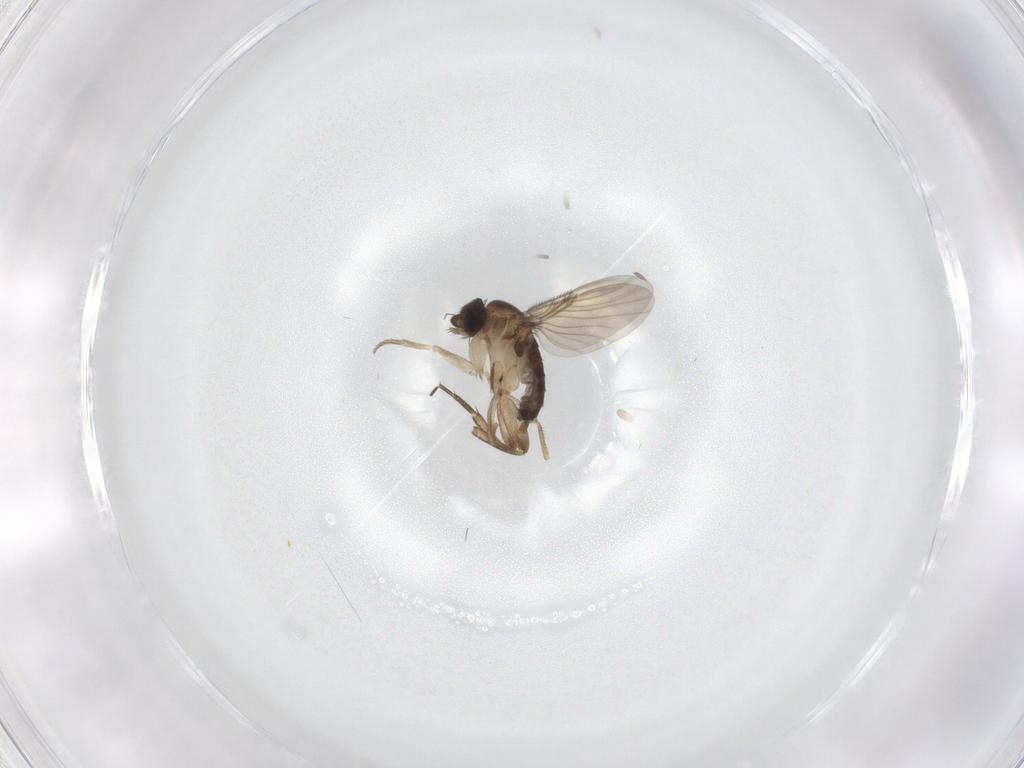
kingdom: Animalia
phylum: Arthropoda
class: Insecta
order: Diptera
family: Phoridae
